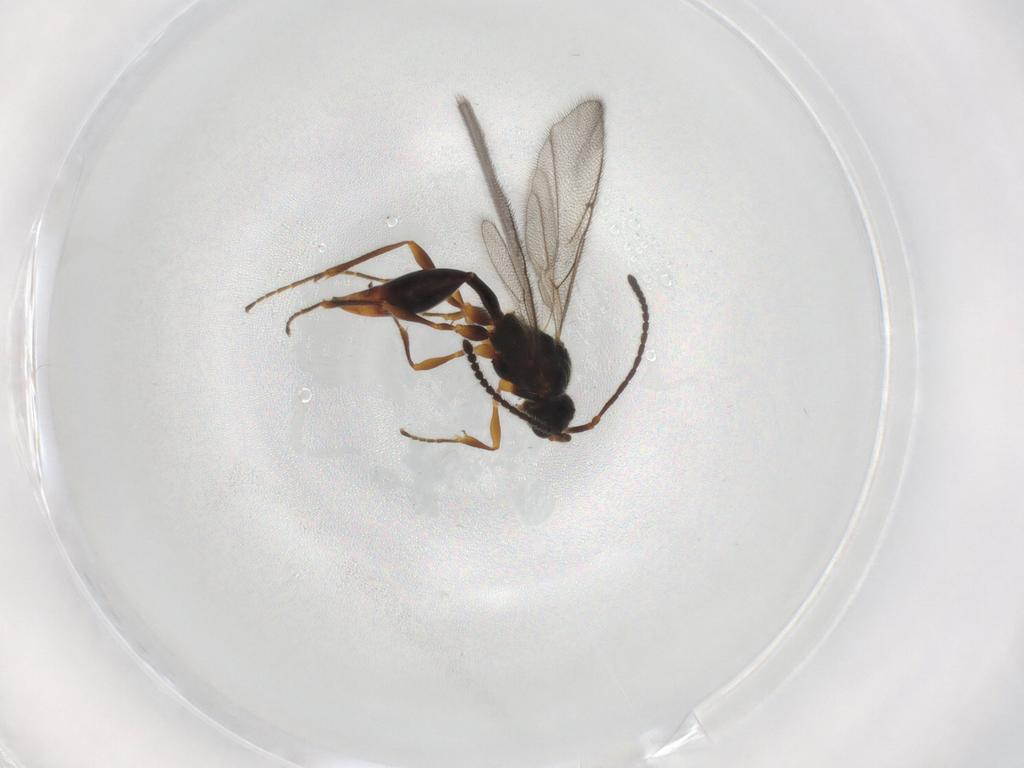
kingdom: Animalia
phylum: Arthropoda
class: Insecta
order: Hymenoptera
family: Diapriidae
